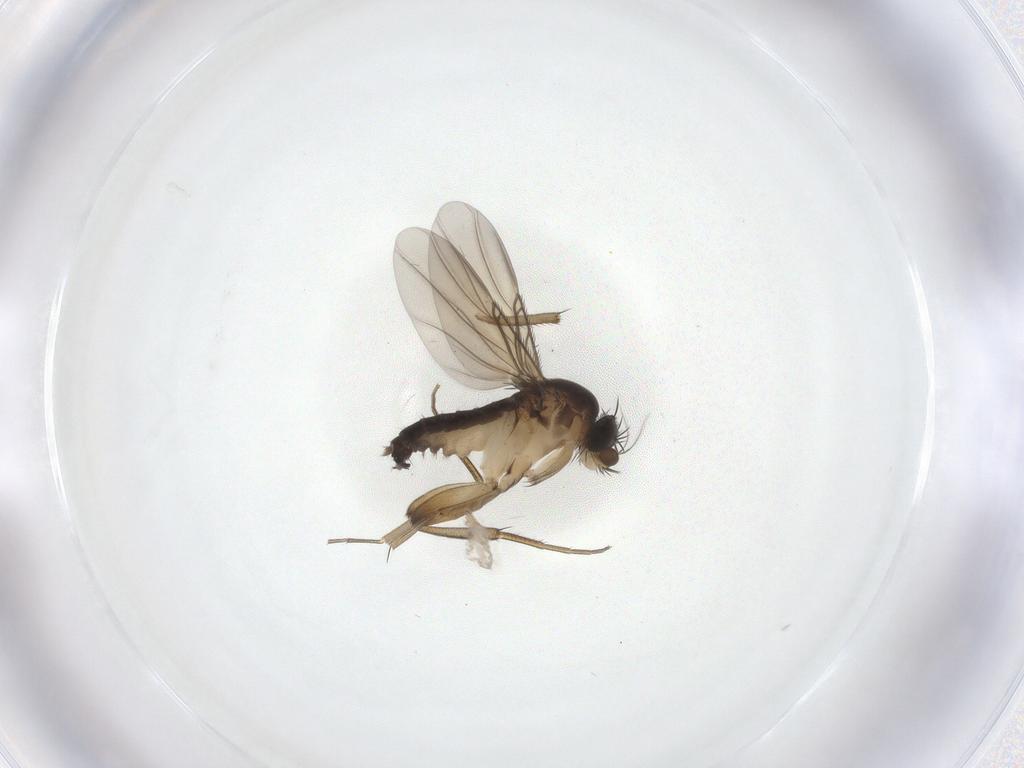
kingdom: Animalia
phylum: Arthropoda
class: Insecta
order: Diptera
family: Phoridae
